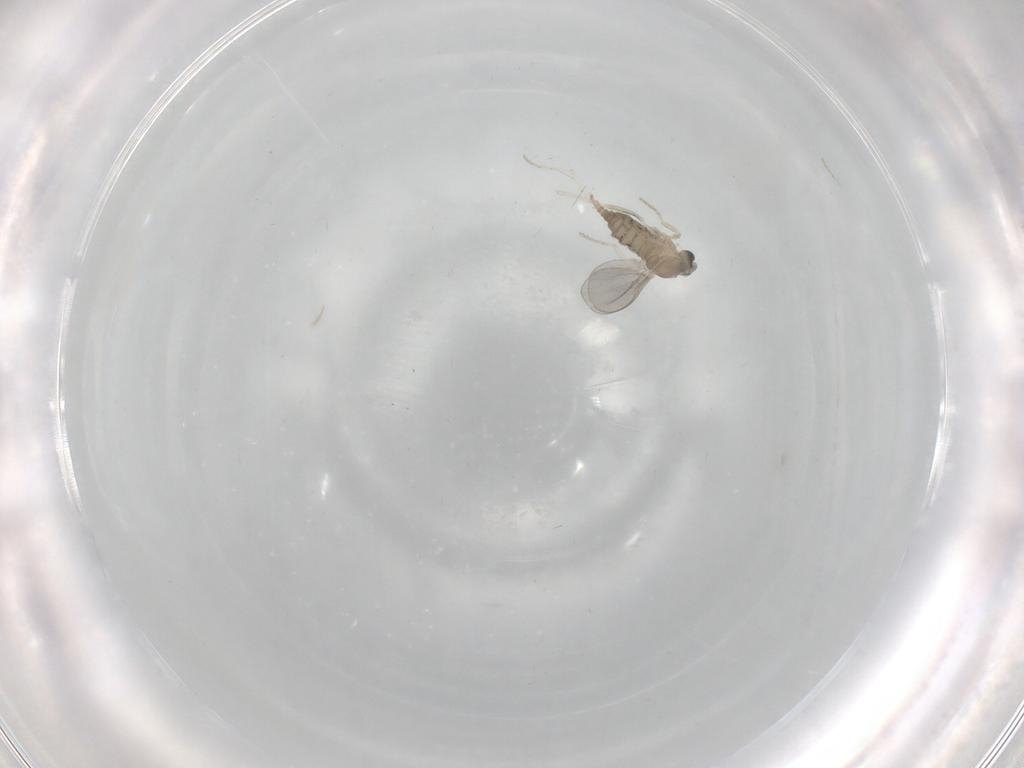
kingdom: Animalia
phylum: Arthropoda
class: Insecta
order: Diptera
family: Cecidomyiidae
